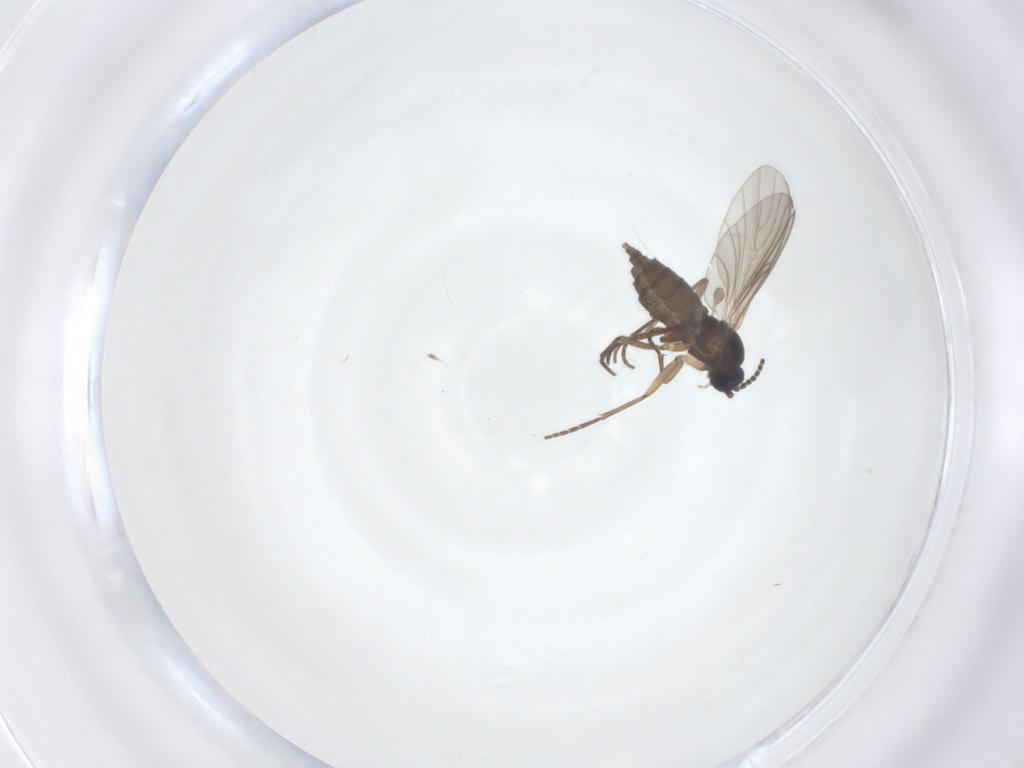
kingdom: Animalia
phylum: Arthropoda
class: Insecta
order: Diptera
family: Sciaridae
